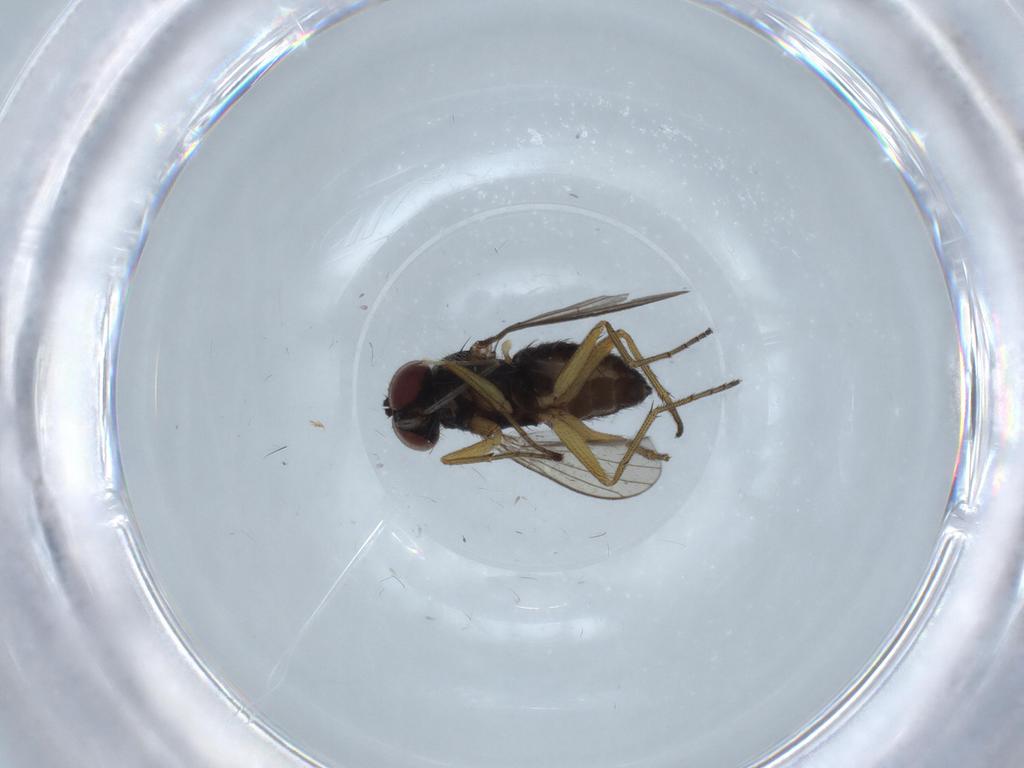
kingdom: Animalia
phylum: Arthropoda
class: Insecta
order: Diptera
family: Dolichopodidae
